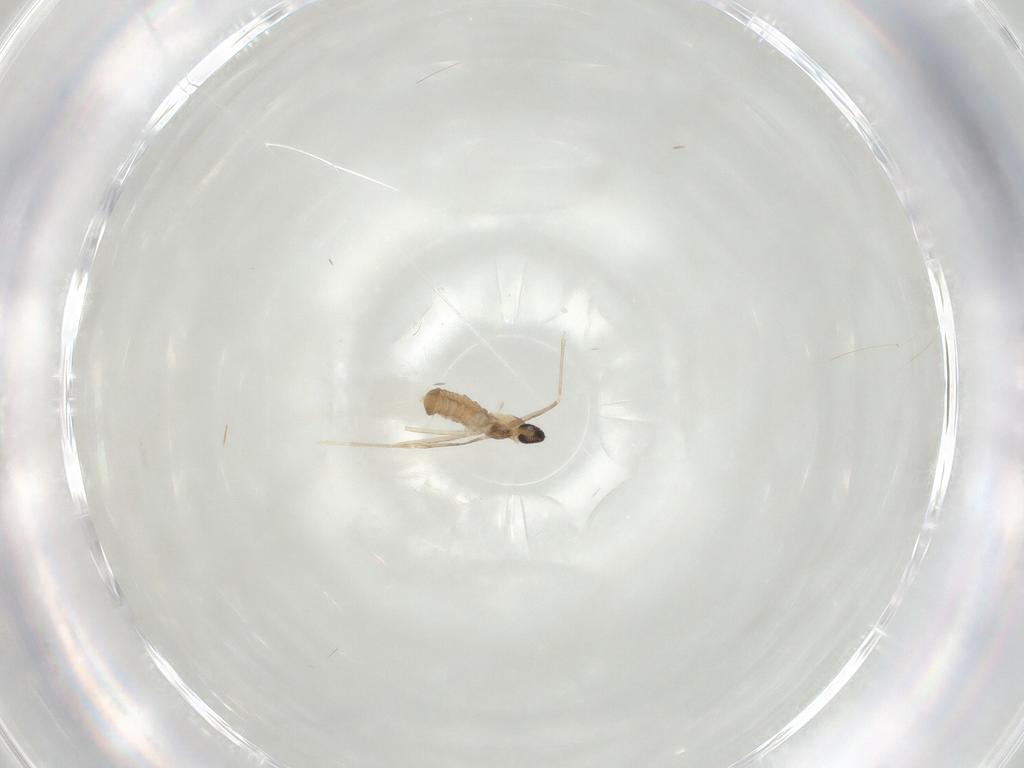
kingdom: Animalia
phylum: Arthropoda
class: Insecta
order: Diptera
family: Cecidomyiidae
